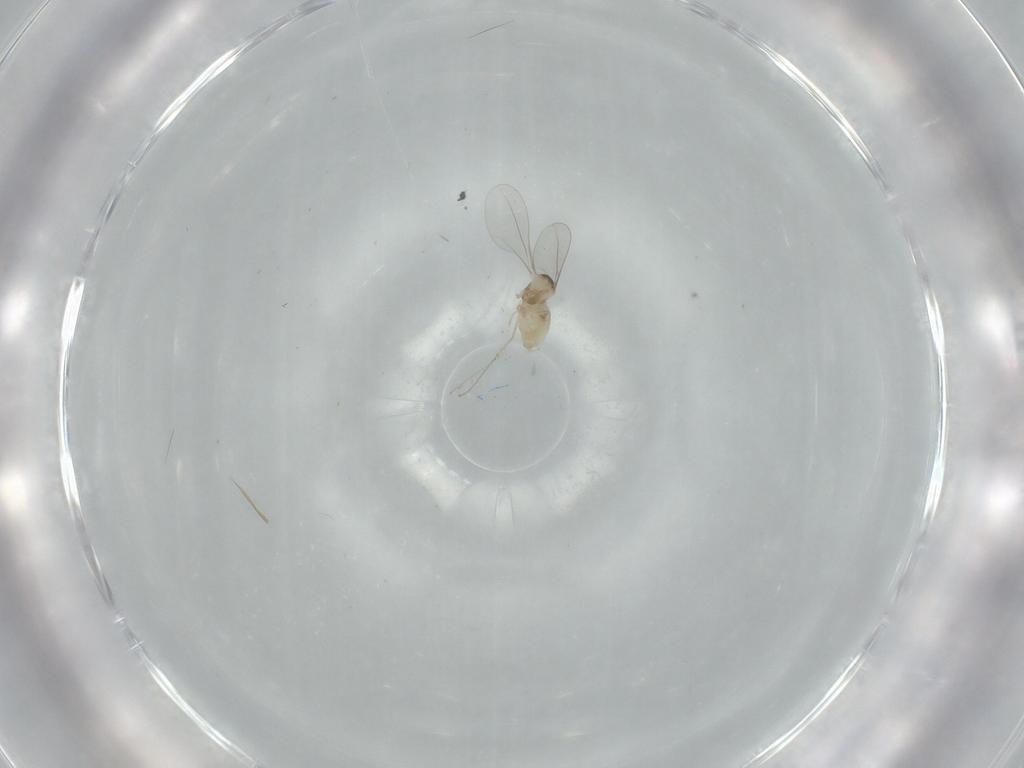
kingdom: Animalia
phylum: Arthropoda
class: Insecta
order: Diptera
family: Cecidomyiidae
